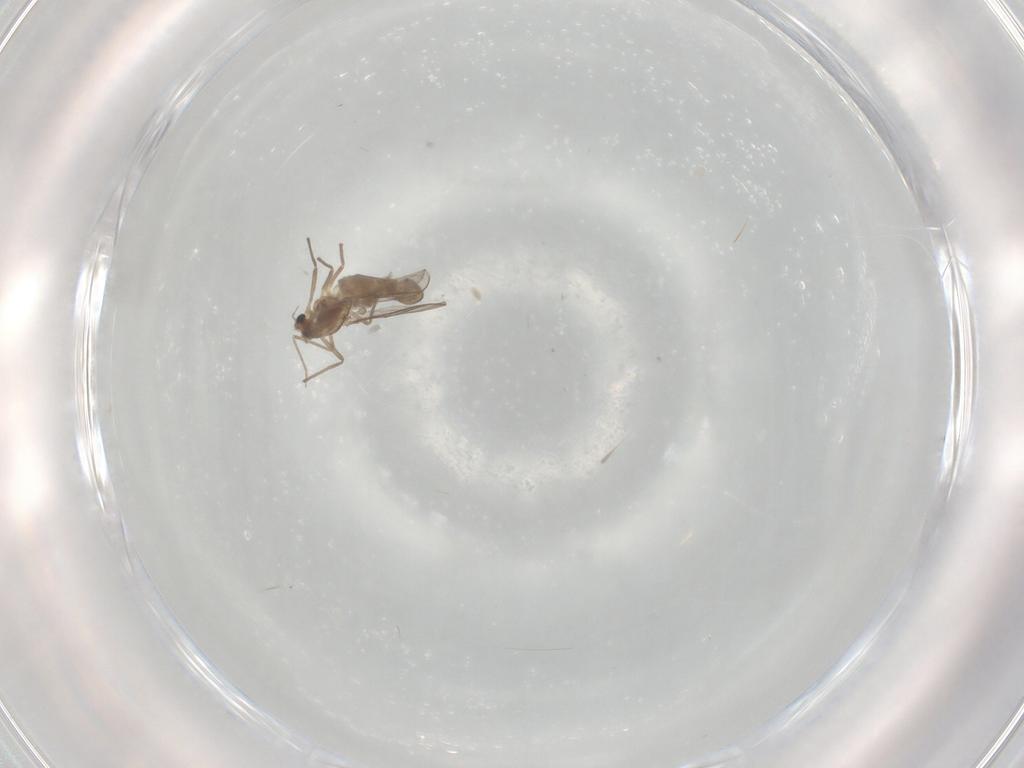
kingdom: Animalia
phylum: Arthropoda
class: Insecta
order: Diptera
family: Chironomidae
